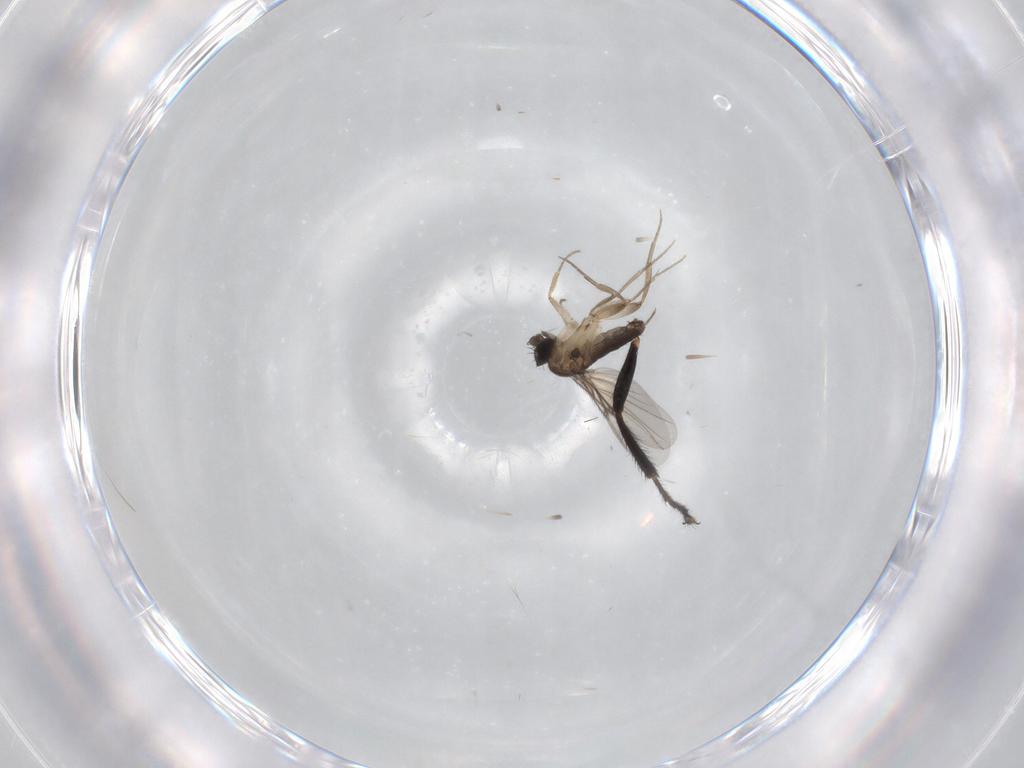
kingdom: Animalia
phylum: Arthropoda
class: Insecta
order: Diptera
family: Phoridae
